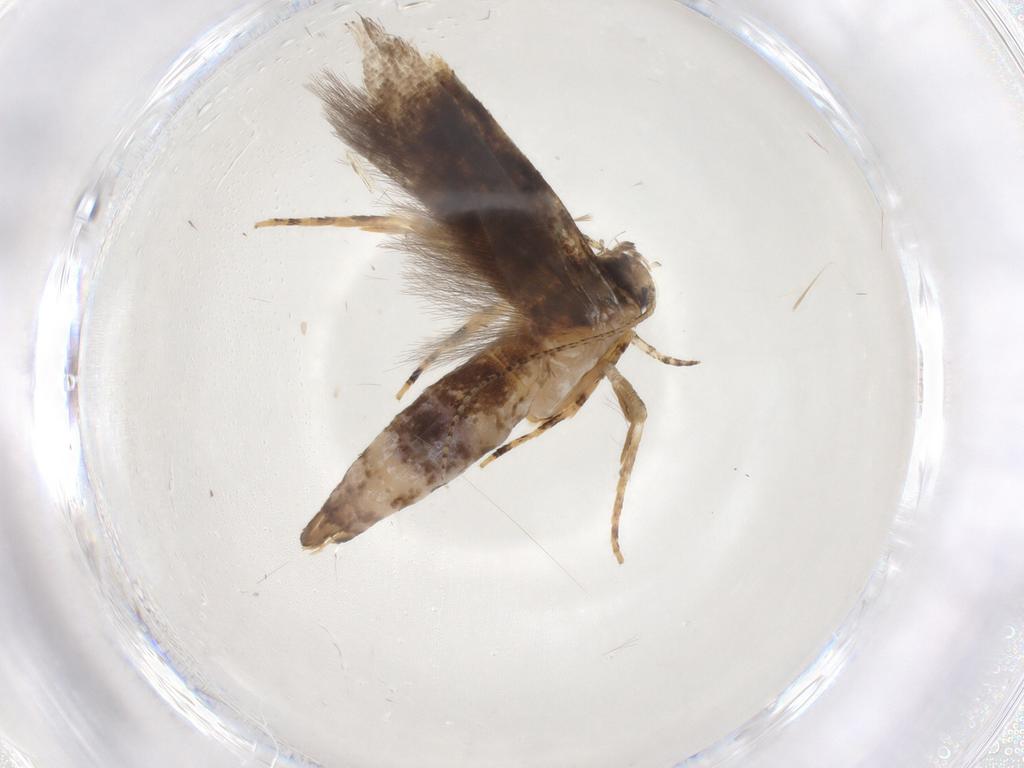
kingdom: Animalia
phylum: Arthropoda
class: Insecta
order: Lepidoptera
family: Gelechiidae
